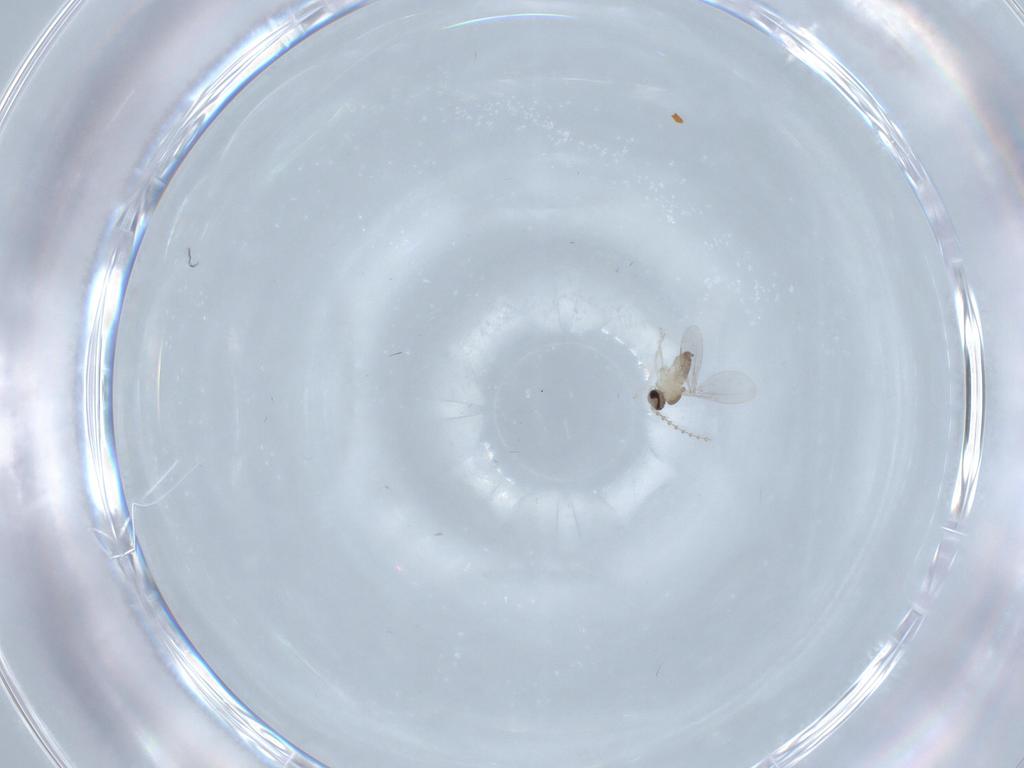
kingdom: Animalia
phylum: Arthropoda
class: Insecta
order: Diptera
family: Cecidomyiidae
